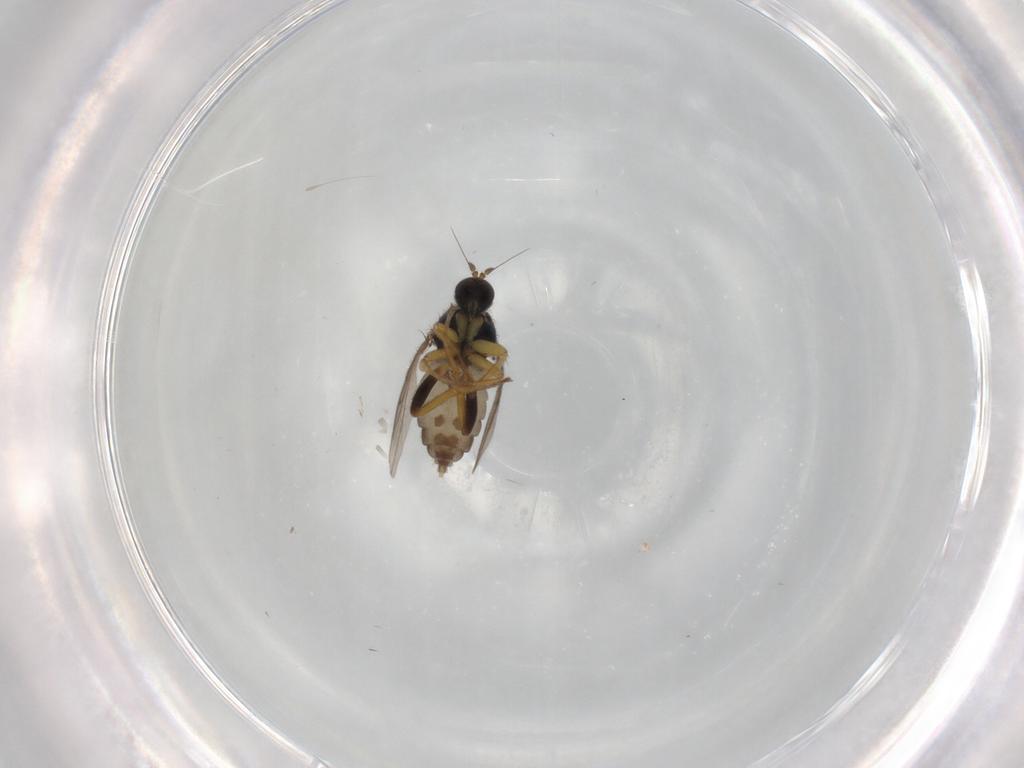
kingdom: Animalia
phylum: Arthropoda
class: Insecta
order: Diptera
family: Hybotidae
